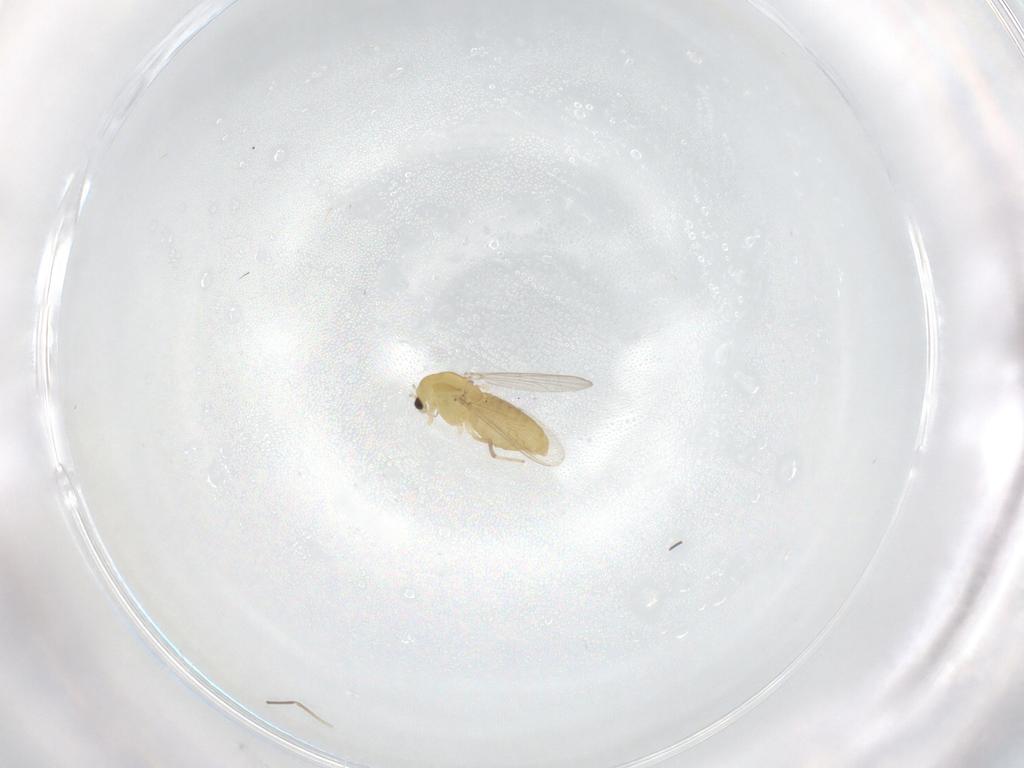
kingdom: Animalia
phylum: Arthropoda
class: Insecta
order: Diptera
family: Chironomidae
